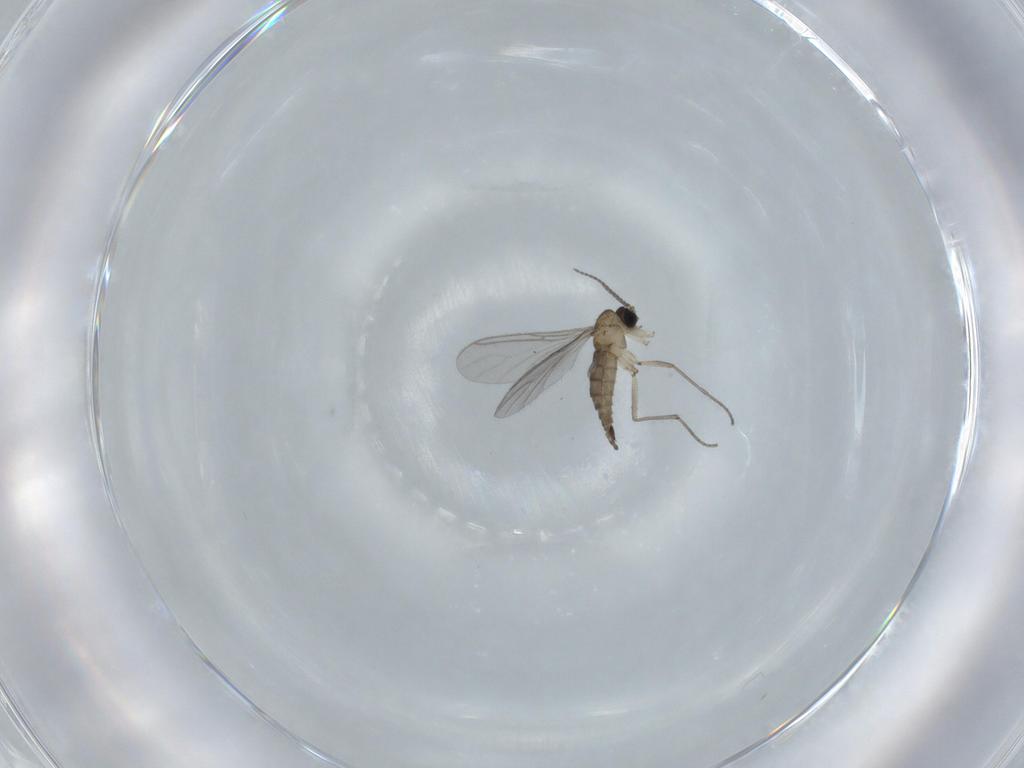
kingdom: Animalia
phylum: Arthropoda
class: Insecta
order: Diptera
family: Sciaridae
